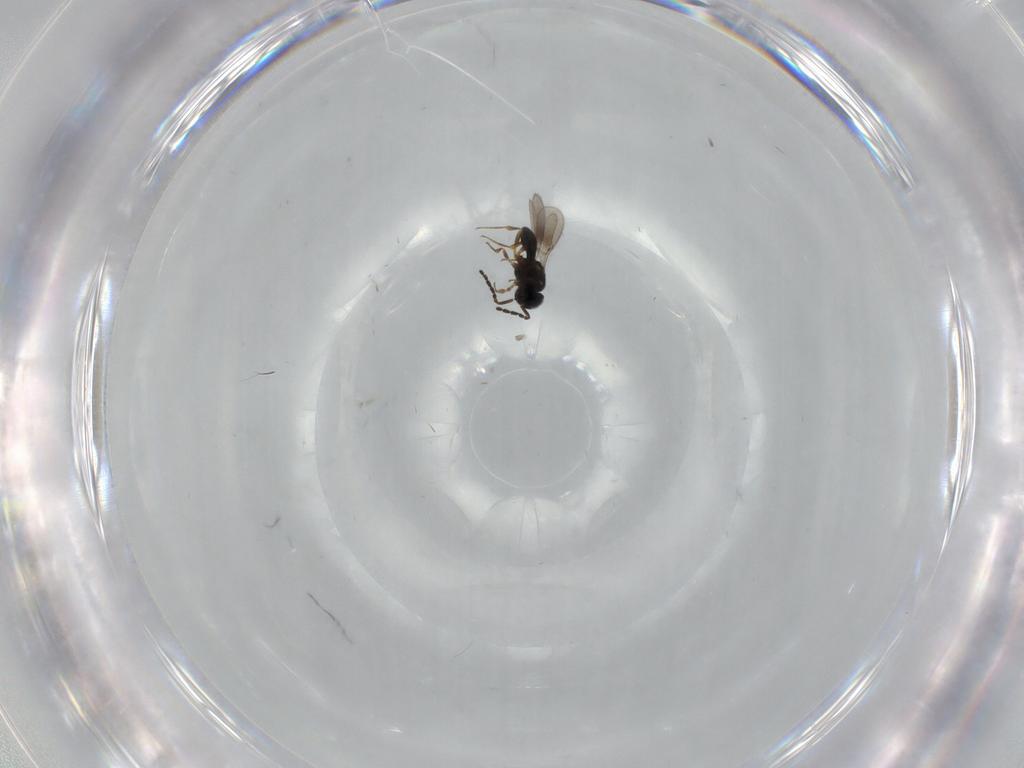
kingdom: Animalia
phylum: Arthropoda
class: Insecta
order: Hymenoptera
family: Scelionidae
